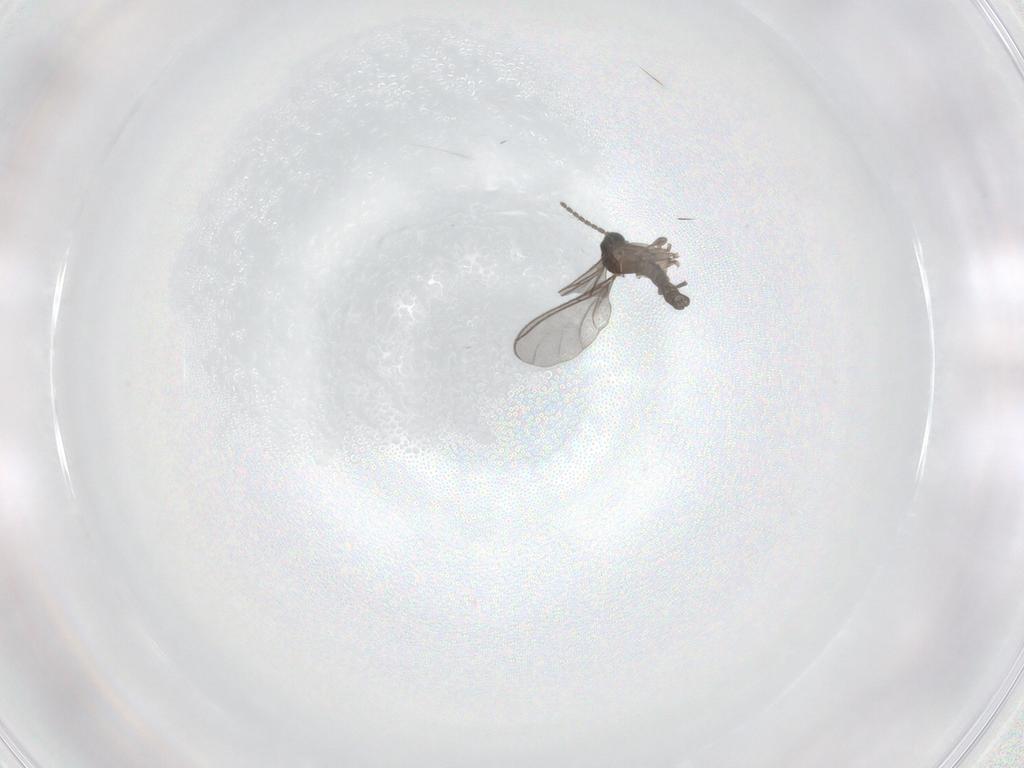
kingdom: Animalia
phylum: Arthropoda
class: Insecta
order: Diptera
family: Sciaridae
